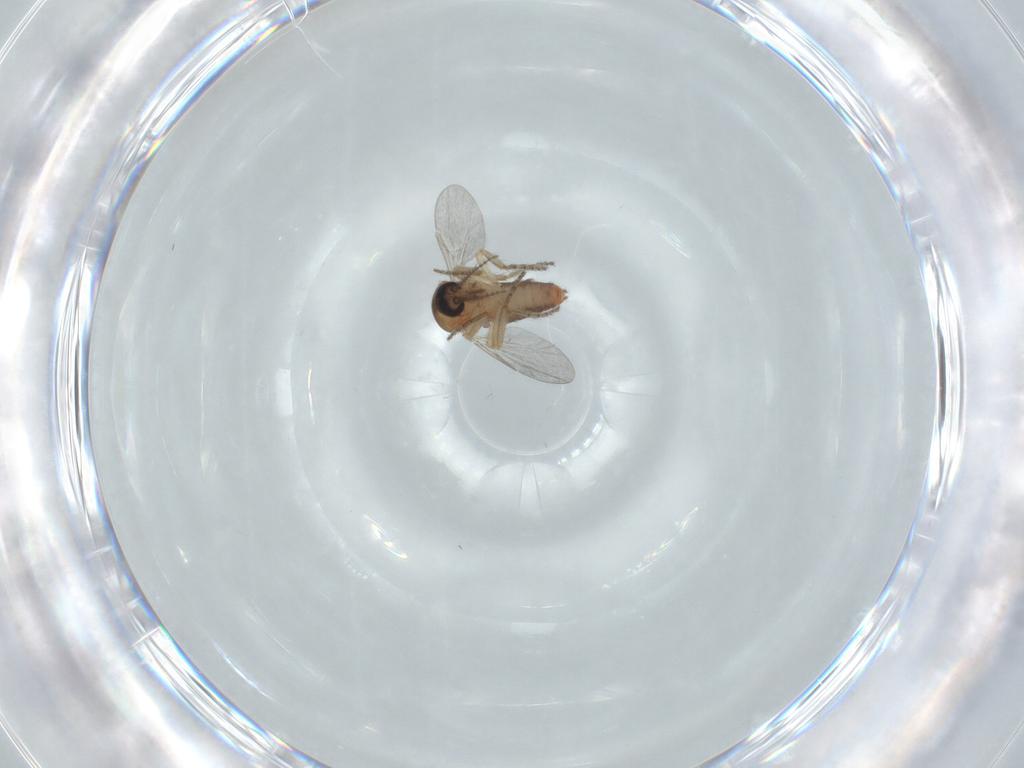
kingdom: Animalia
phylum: Arthropoda
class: Insecta
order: Diptera
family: Ceratopogonidae
